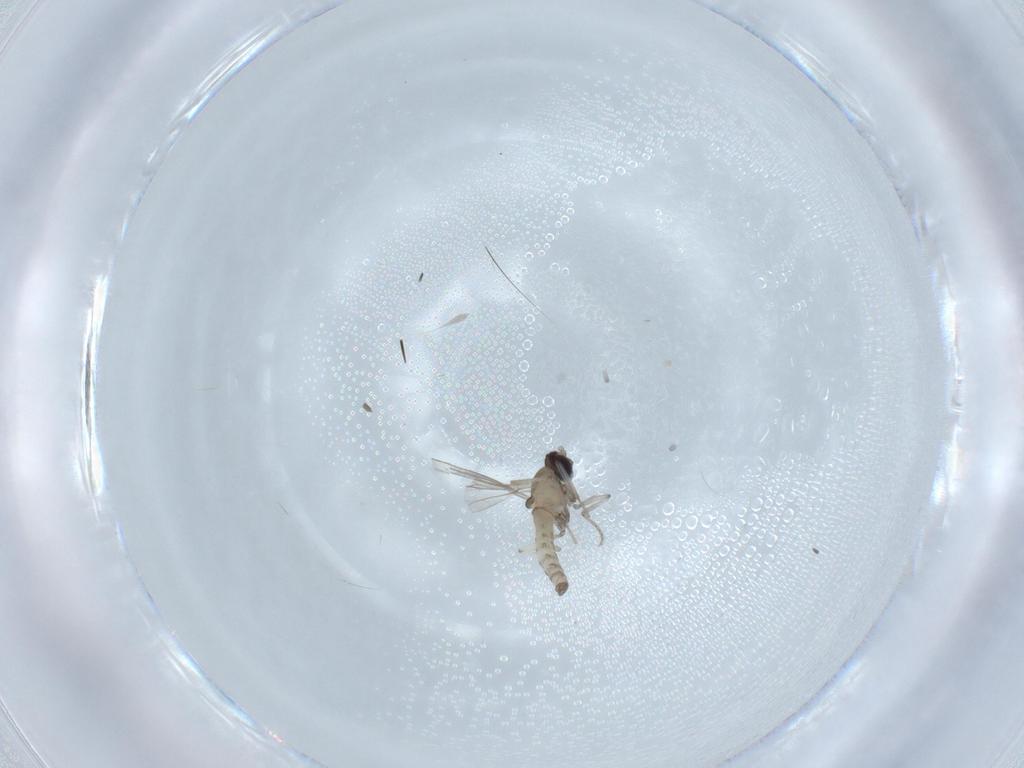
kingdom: Animalia
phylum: Arthropoda
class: Insecta
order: Diptera
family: Cecidomyiidae
